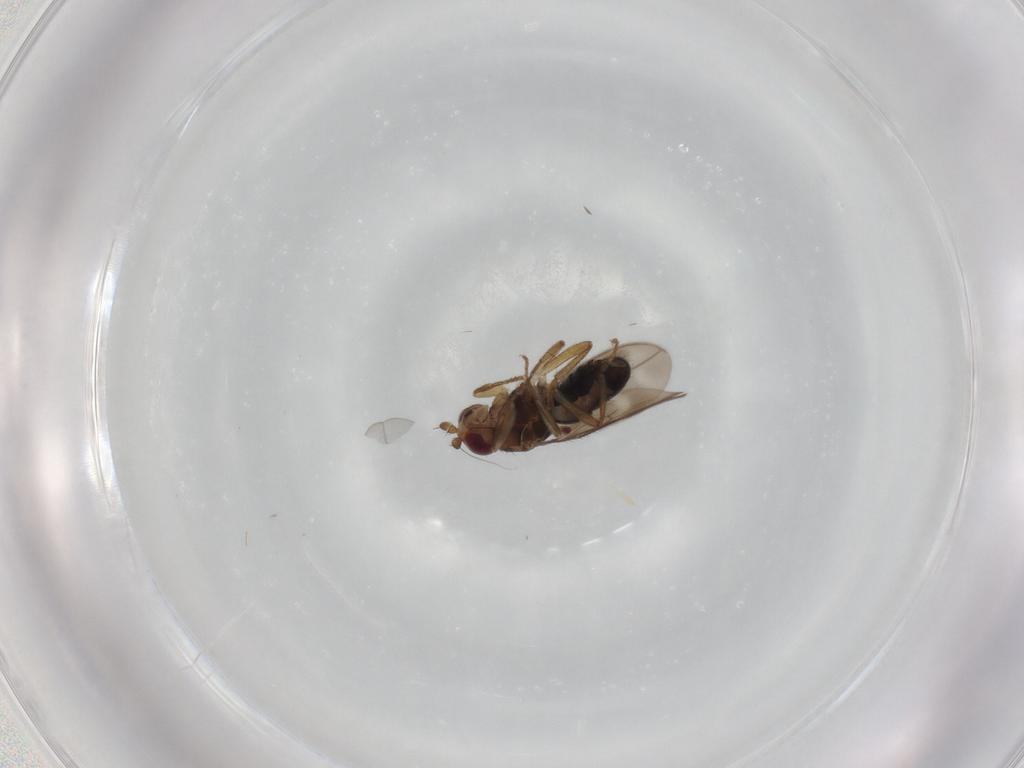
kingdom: Animalia
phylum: Arthropoda
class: Insecta
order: Diptera
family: Sphaeroceridae
